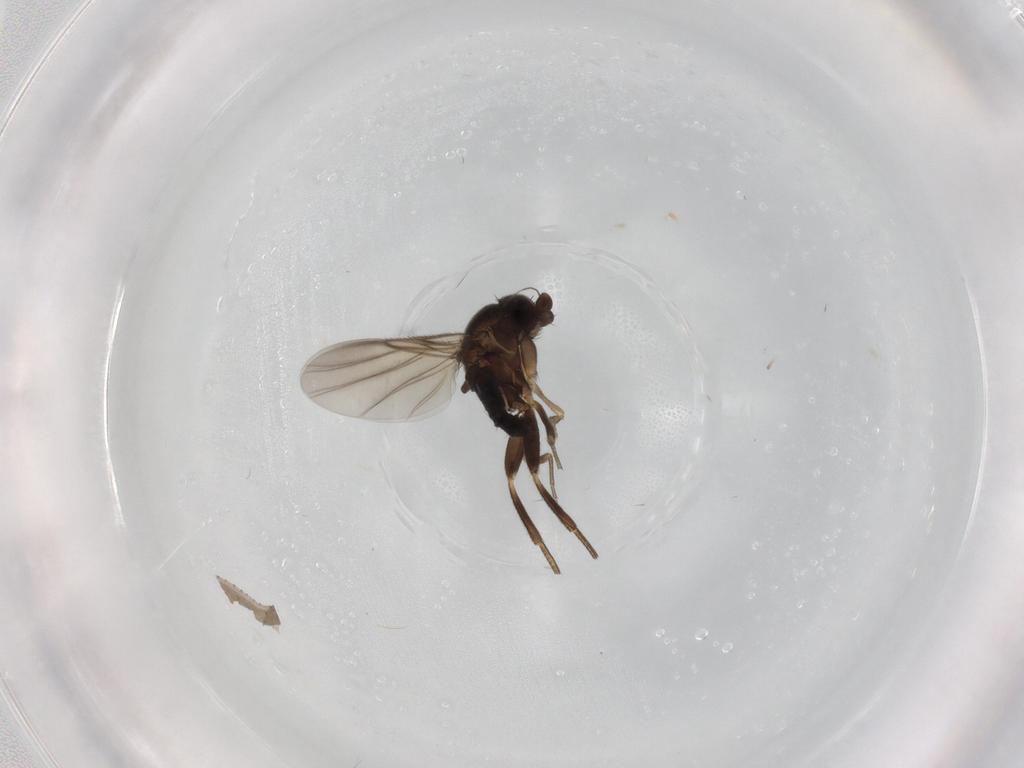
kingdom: Animalia
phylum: Arthropoda
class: Insecta
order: Diptera
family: Phoridae
